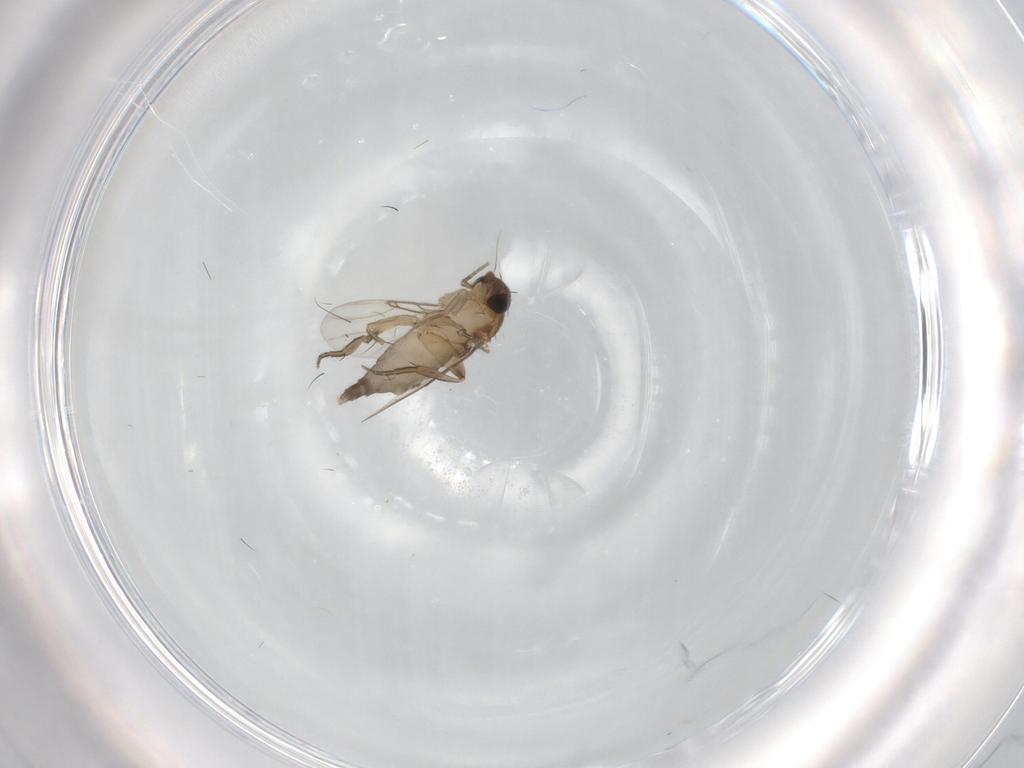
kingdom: Animalia
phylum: Arthropoda
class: Insecta
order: Diptera
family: Phoridae
